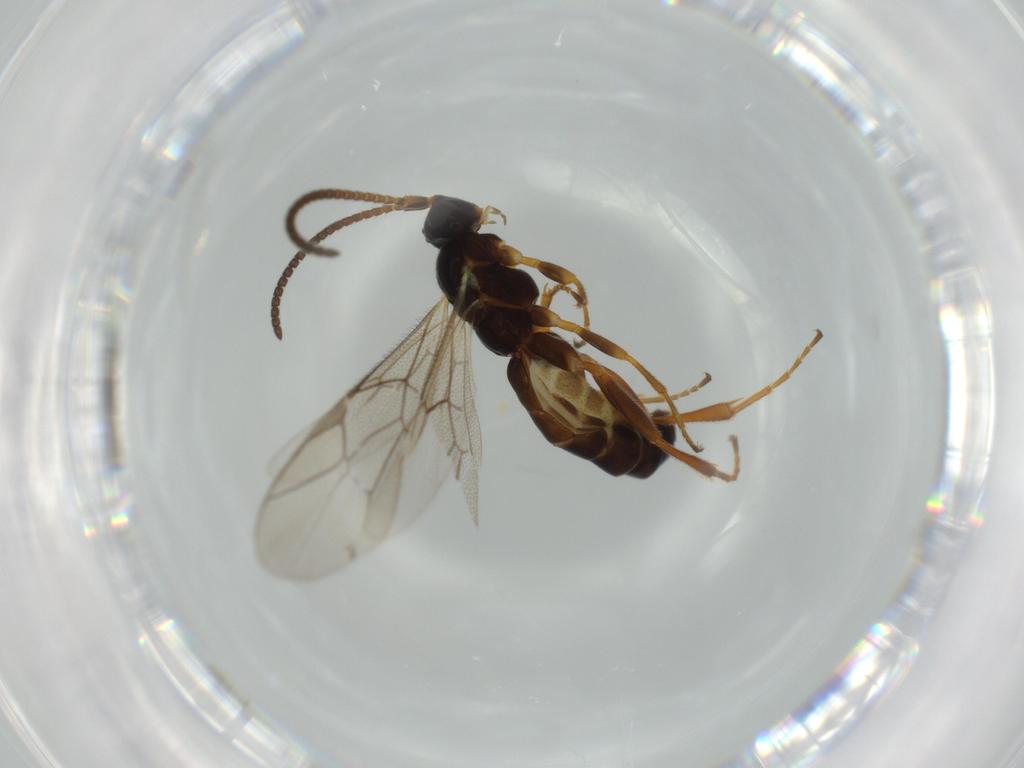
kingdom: Animalia
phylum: Arthropoda
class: Insecta
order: Hymenoptera
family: Ichneumonidae
